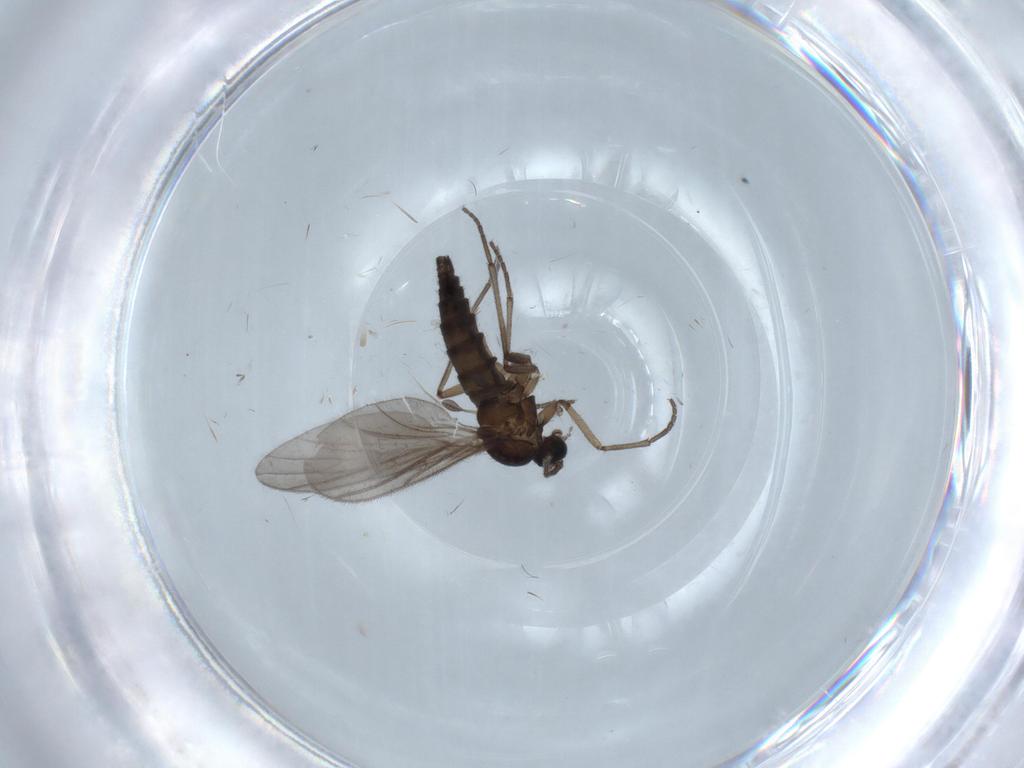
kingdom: Animalia
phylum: Arthropoda
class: Insecta
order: Diptera
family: Sciaridae
